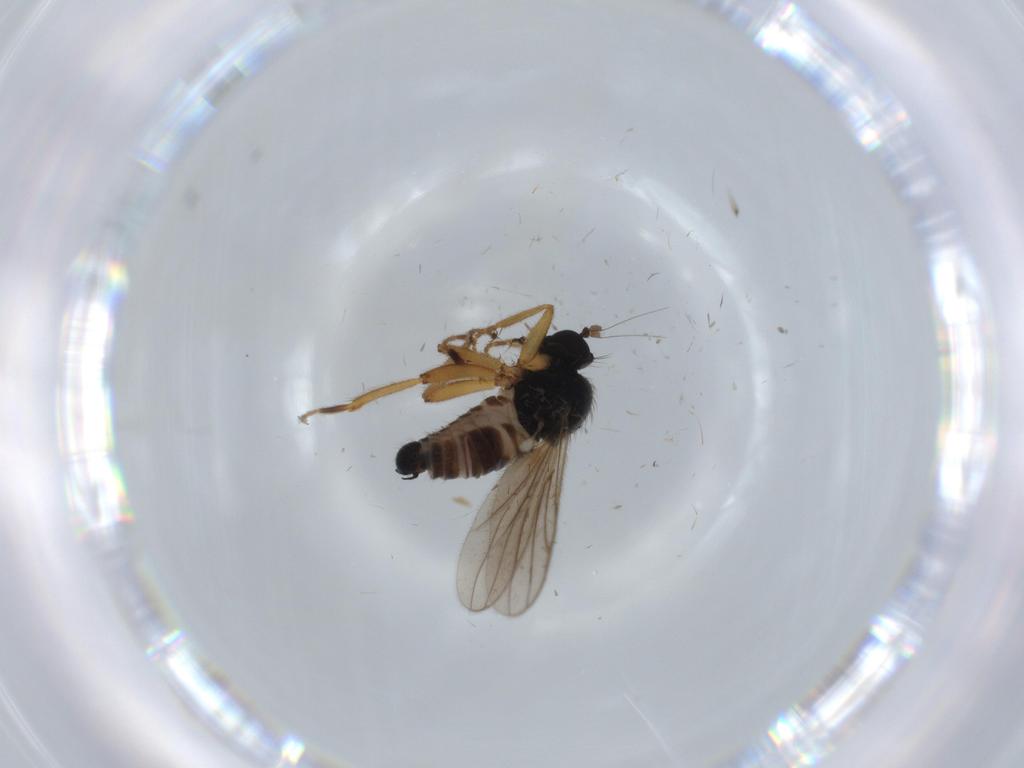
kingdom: Animalia
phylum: Arthropoda
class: Insecta
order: Diptera
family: Hybotidae
